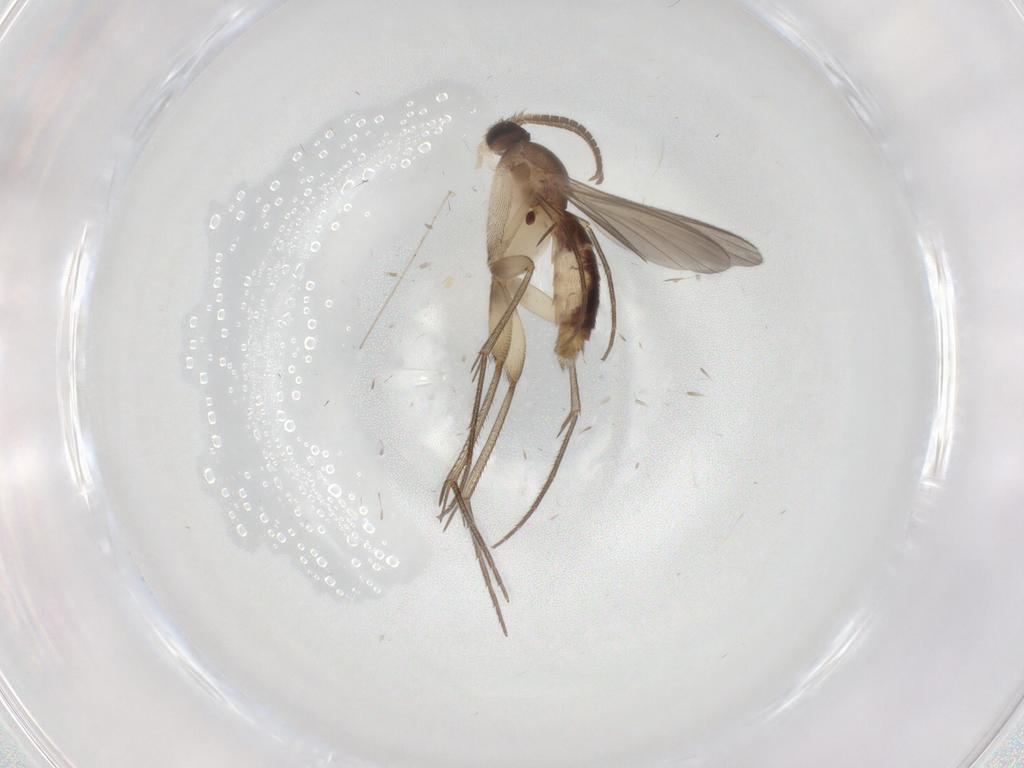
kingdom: Animalia
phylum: Arthropoda
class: Insecta
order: Diptera
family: Mycetophilidae
